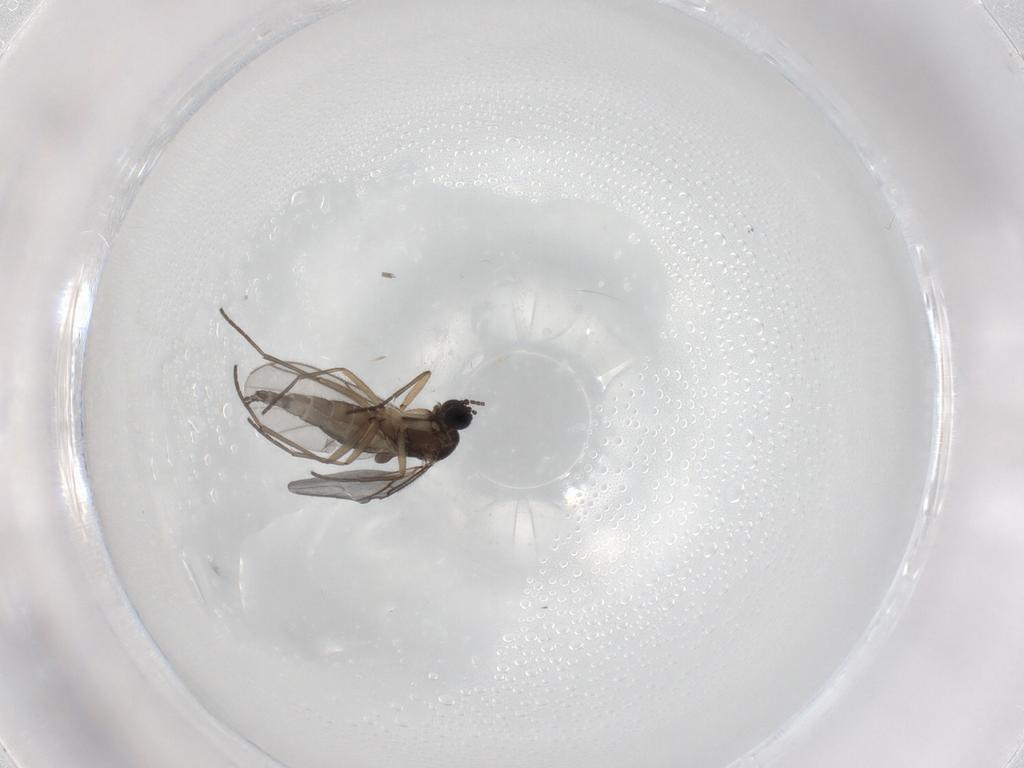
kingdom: Animalia
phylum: Arthropoda
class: Insecta
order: Diptera
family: Sciaridae
